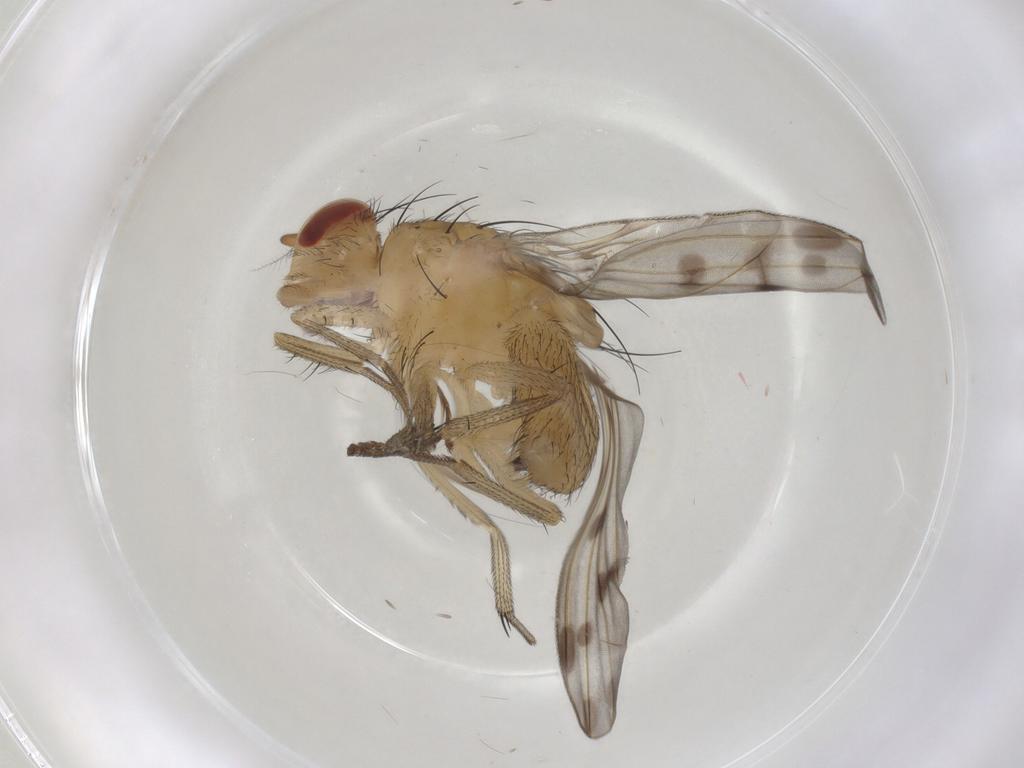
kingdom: Animalia
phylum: Arthropoda
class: Insecta
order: Diptera
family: Lauxaniidae
